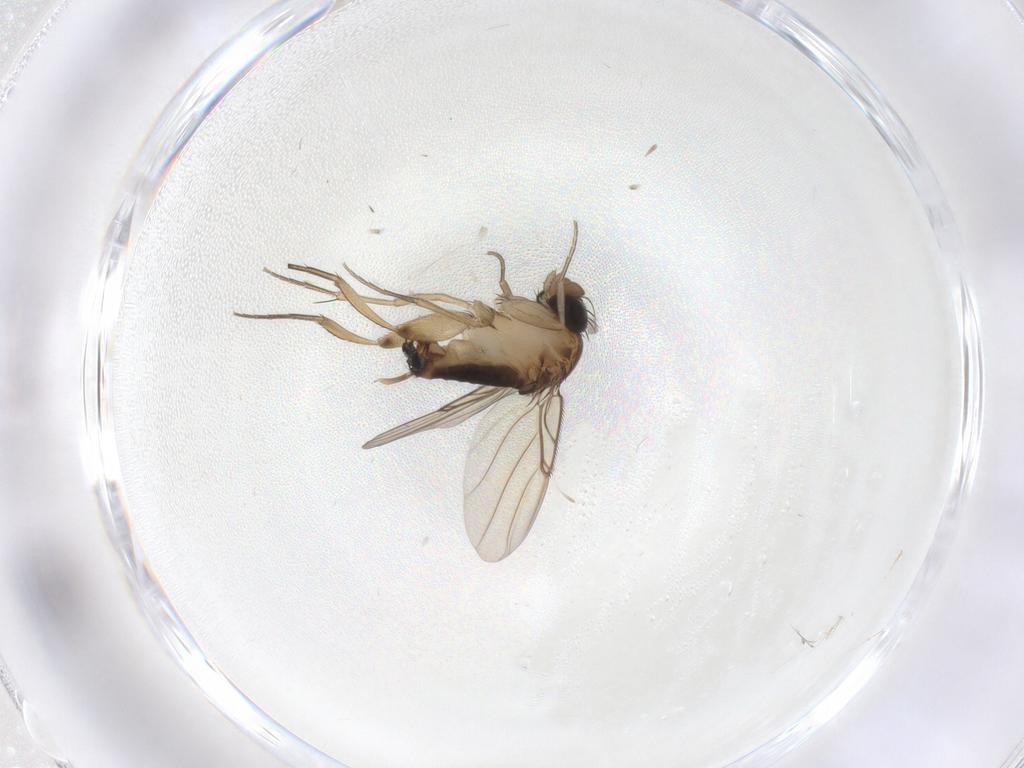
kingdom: Animalia
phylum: Arthropoda
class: Insecta
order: Diptera
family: Phoridae
